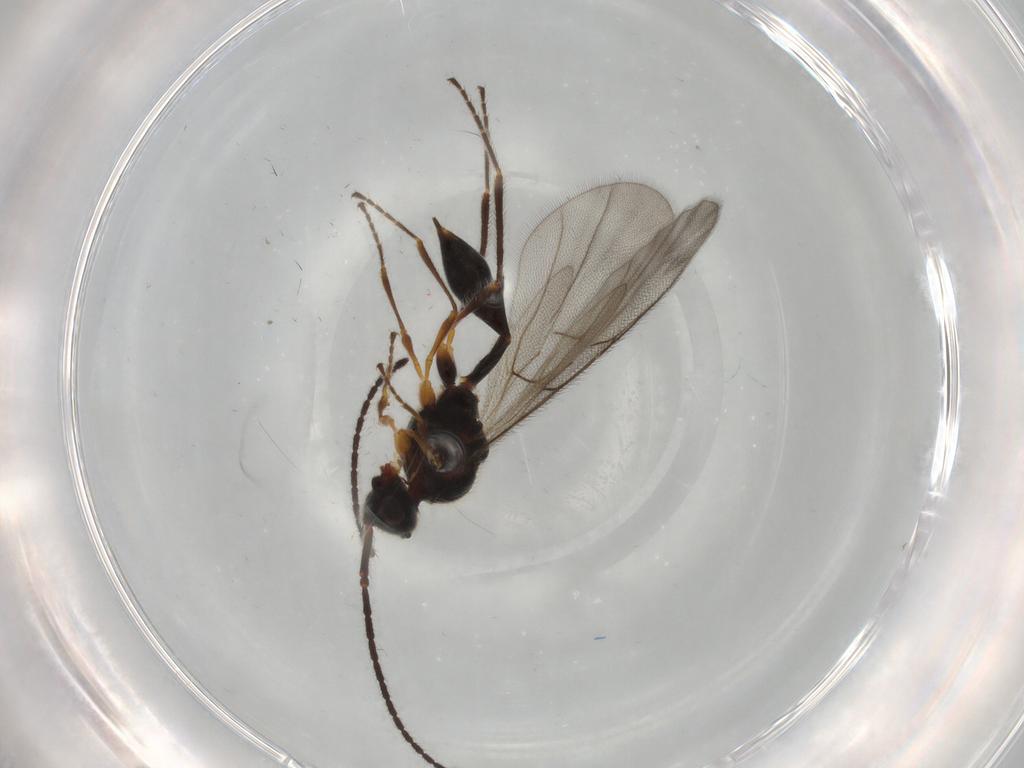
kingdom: Animalia
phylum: Arthropoda
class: Insecta
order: Hymenoptera
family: Diapriidae
